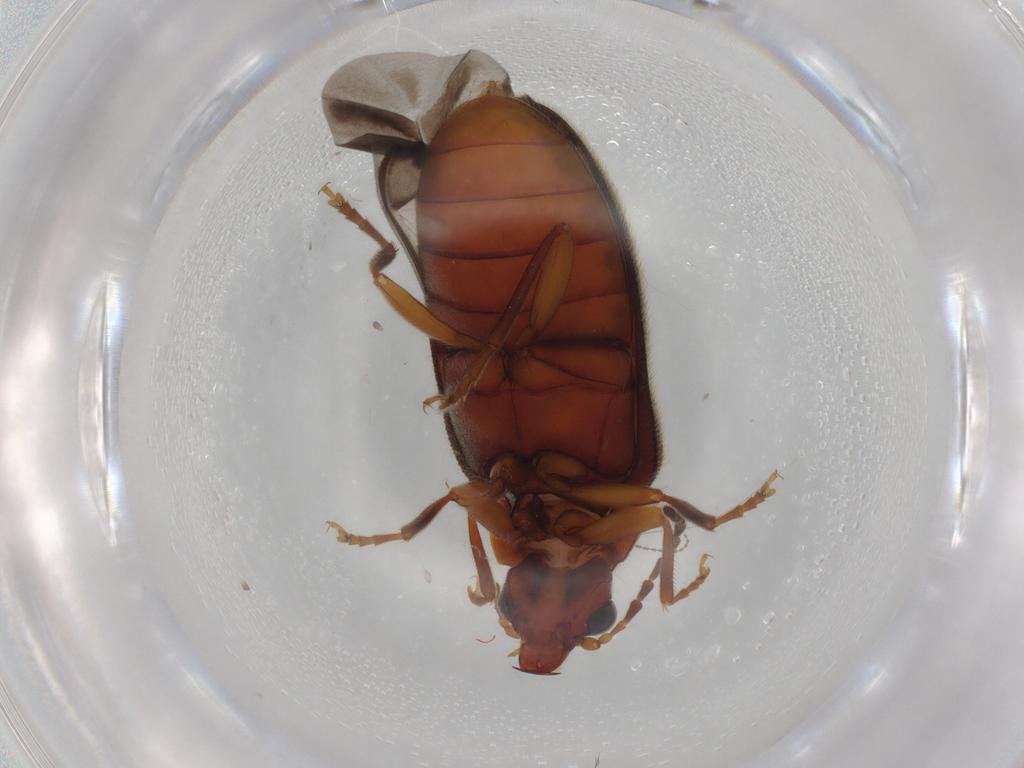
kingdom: Animalia
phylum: Arthropoda
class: Insecta
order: Coleoptera
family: Scirtidae
